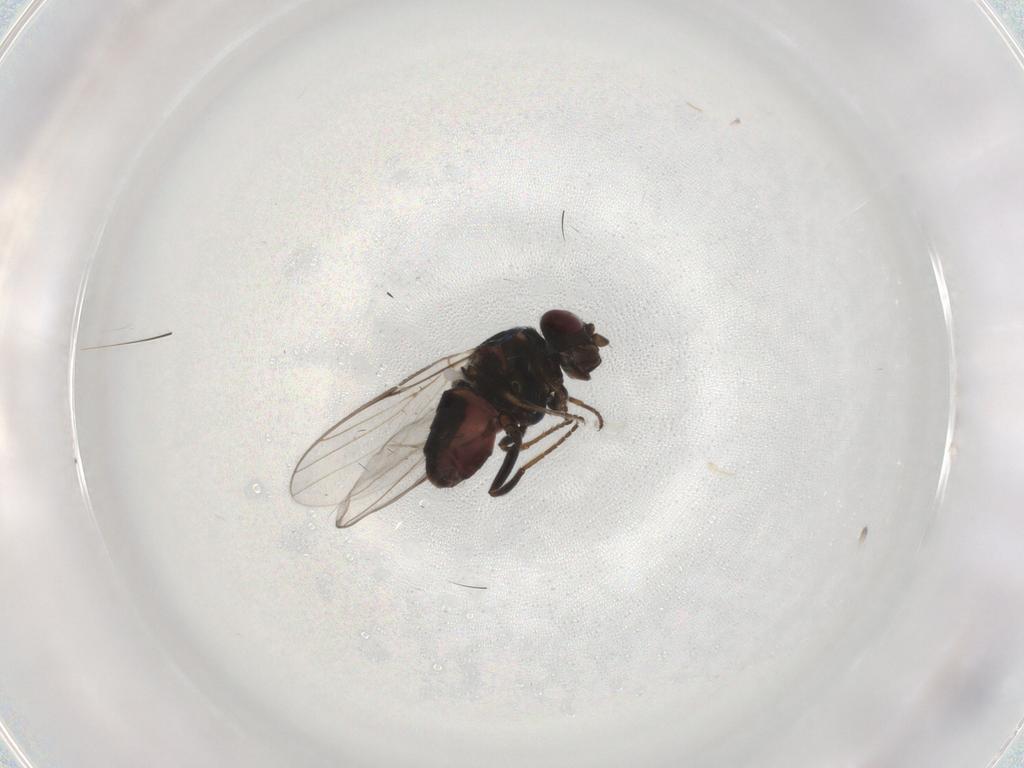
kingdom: Animalia
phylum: Arthropoda
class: Insecta
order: Diptera
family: Chloropidae
